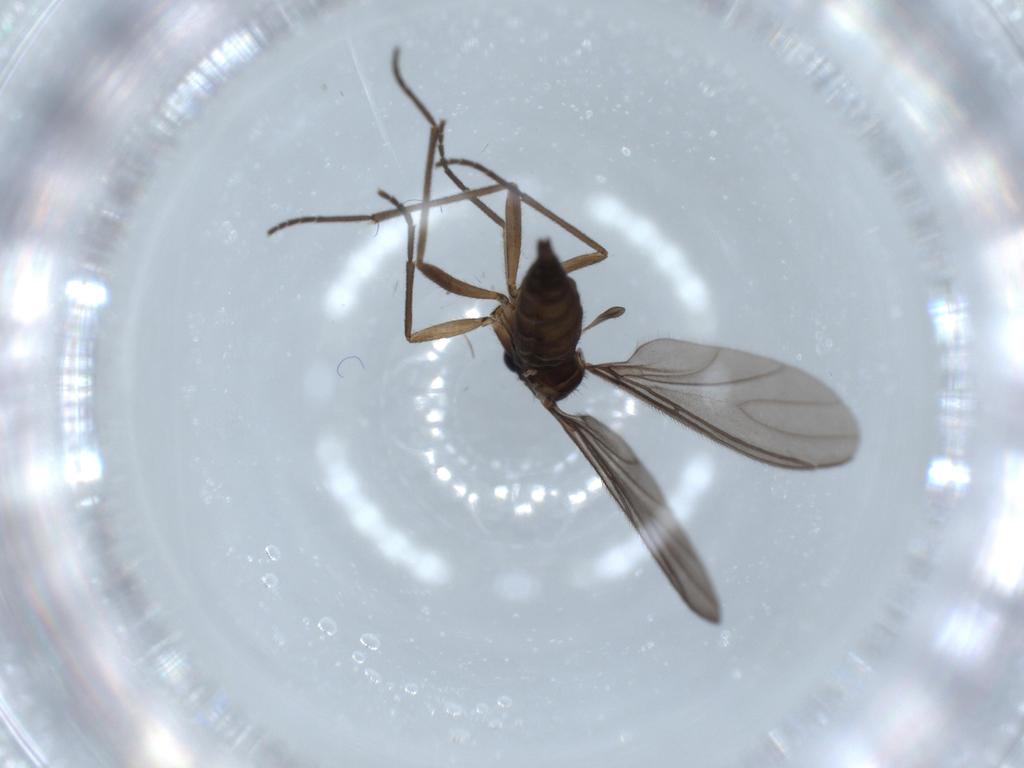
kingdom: Animalia
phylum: Arthropoda
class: Insecta
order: Diptera
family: Sciaridae
